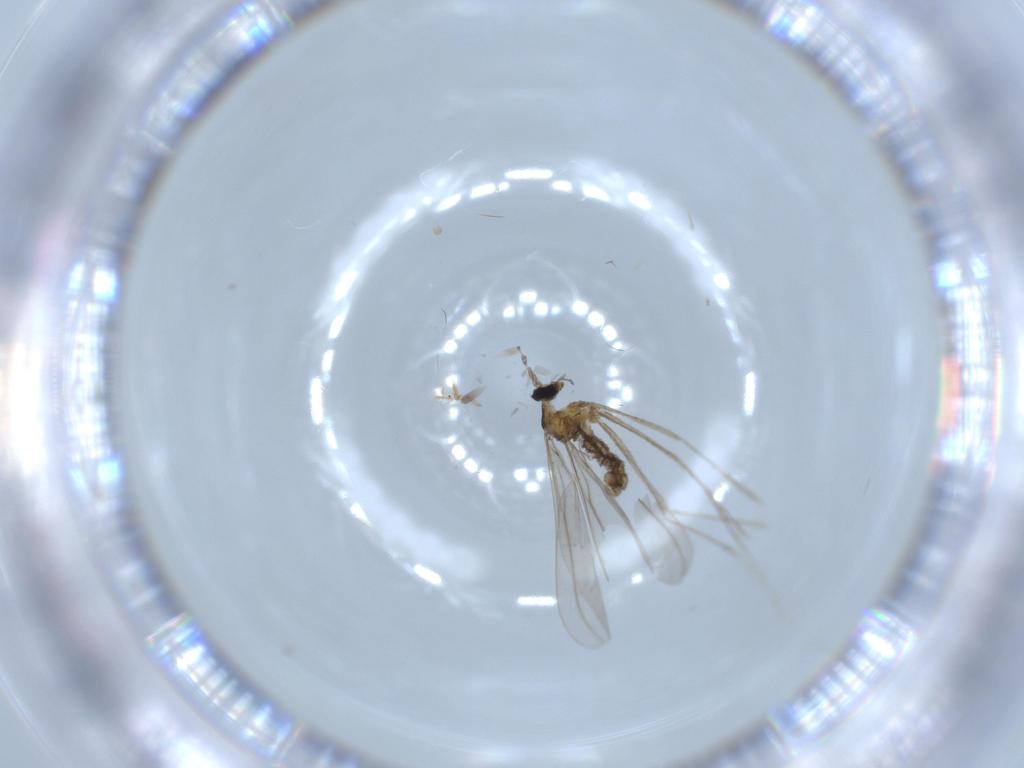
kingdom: Animalia
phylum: Arthropoda
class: Insecta
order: Diptera
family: Cecidomyiidae
